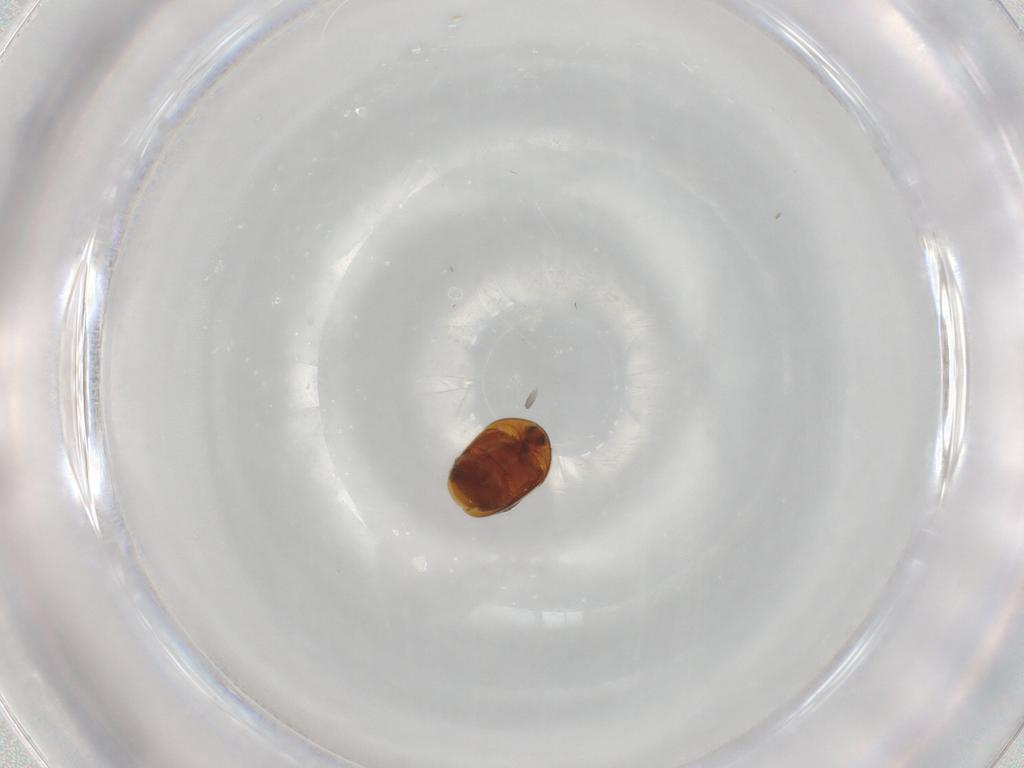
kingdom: Animalia
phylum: Arthropoda
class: Insecta
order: Coleoptera
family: Corylophidae
